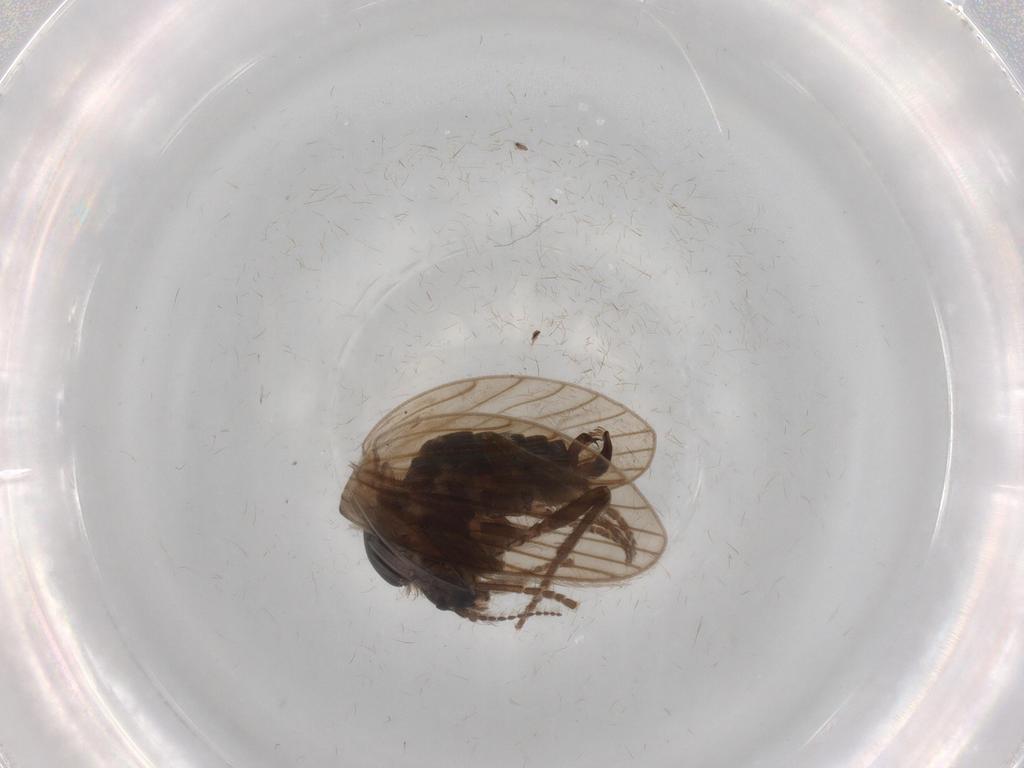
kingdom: Animalia
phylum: Arthropoda
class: Insecta
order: Diptera
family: Psychodidae
